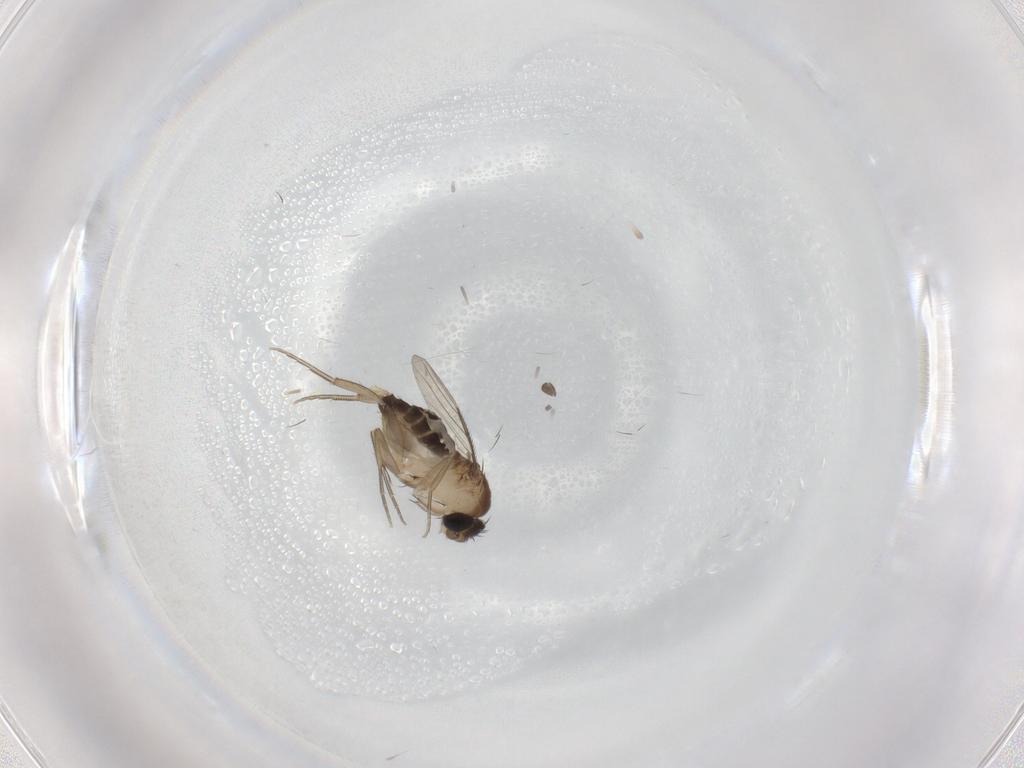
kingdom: Animalia
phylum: Arthropoda
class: Insecta
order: Diptera
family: Phoridae
